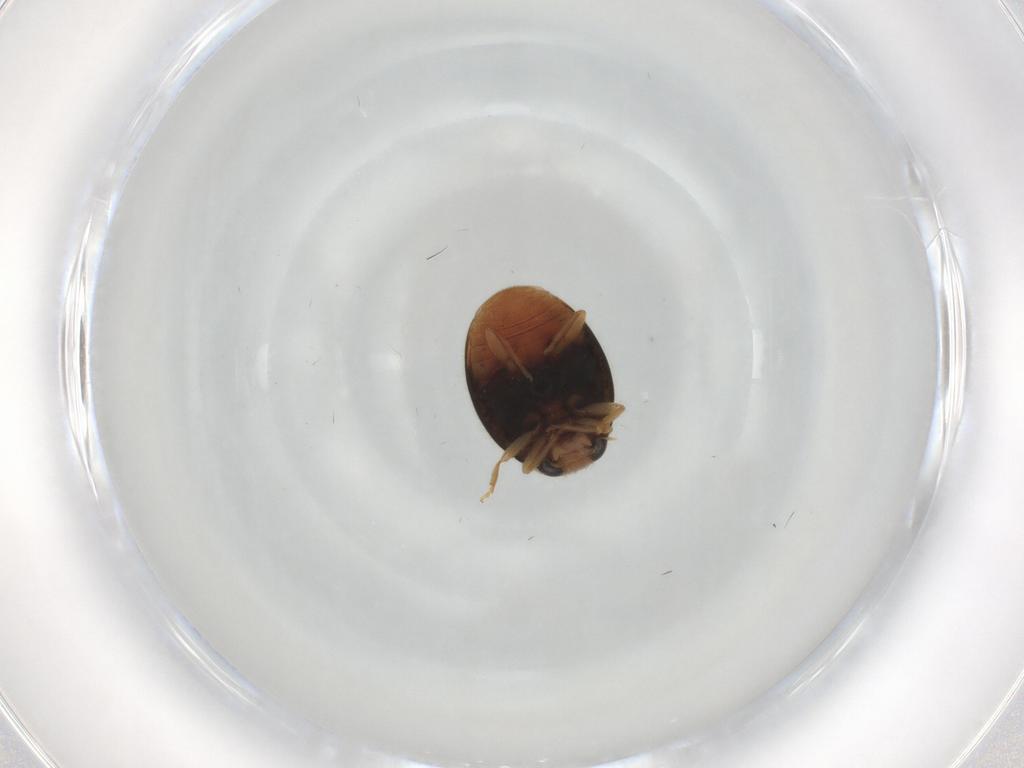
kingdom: Animalia
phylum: Arthropoda
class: Insecta
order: Coleoptera
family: Ptilodactylidae
